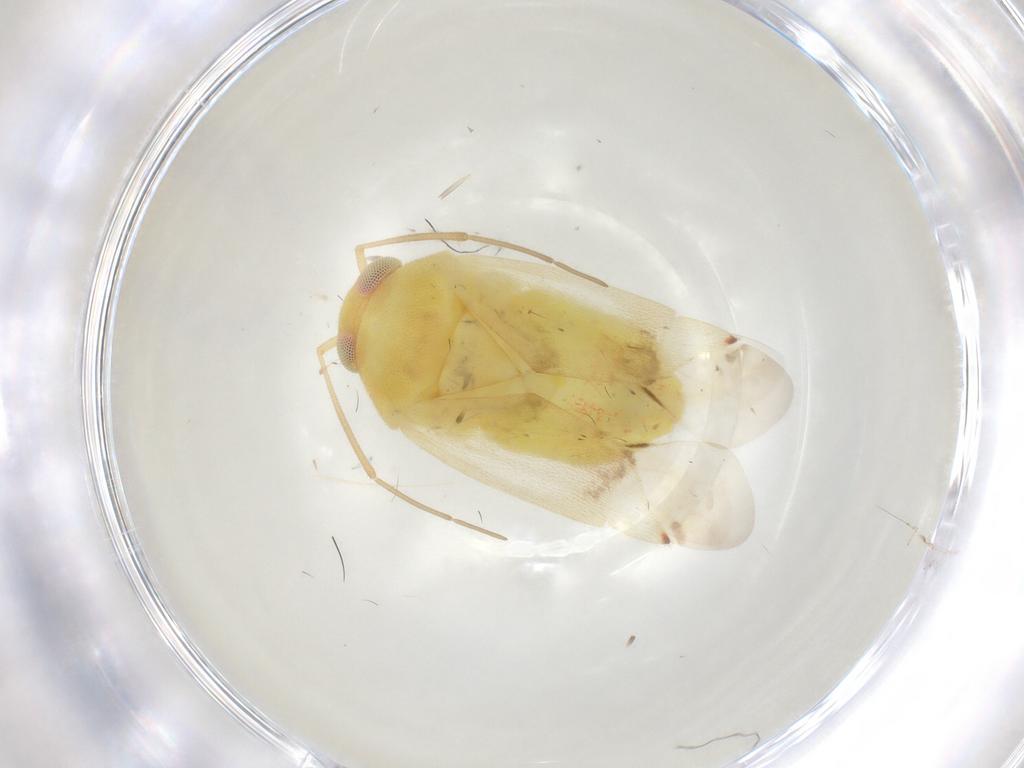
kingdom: Animalia
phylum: Arthropoda
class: Insecta
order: Hemiptera
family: Miridae
